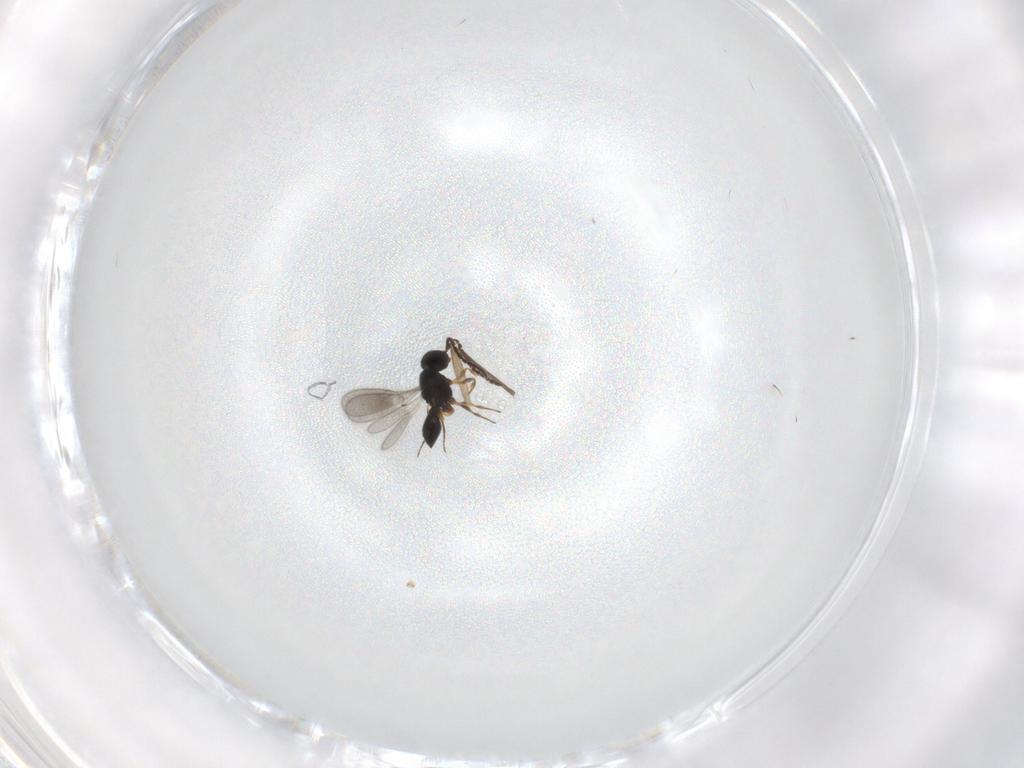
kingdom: Animalia
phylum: Arthropoda
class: Insecta
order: Hymenoptera
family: Scelionidae
